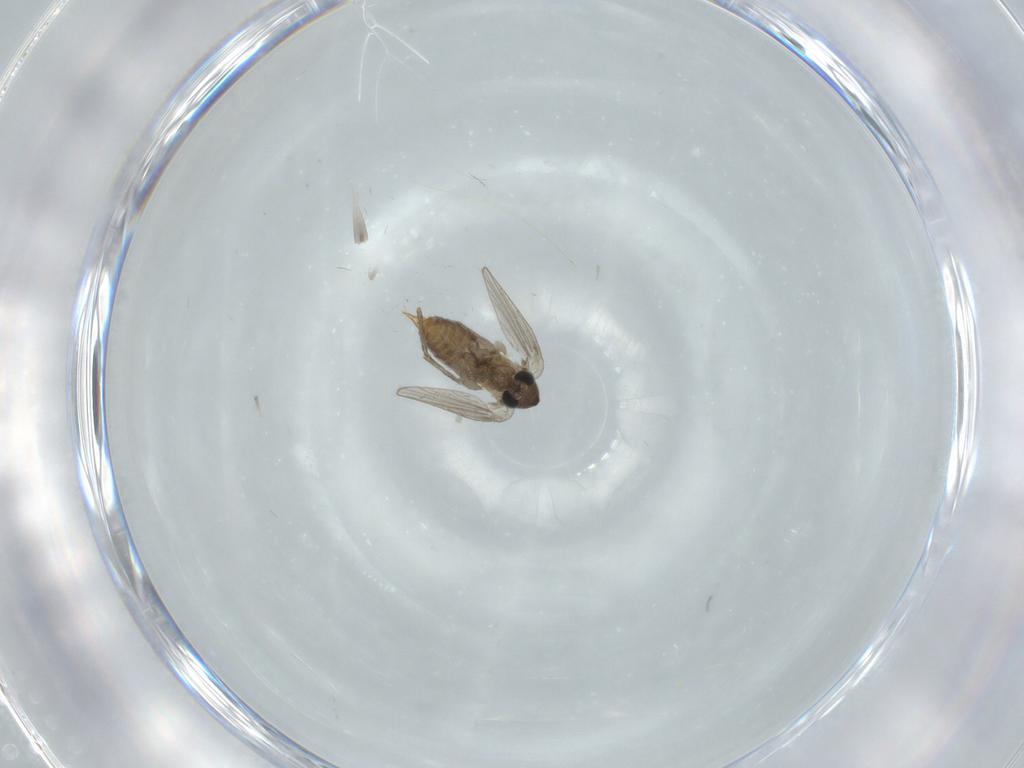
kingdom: Animalia
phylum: Arthropoda
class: Insecta
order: Diptera
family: Psychodidae
